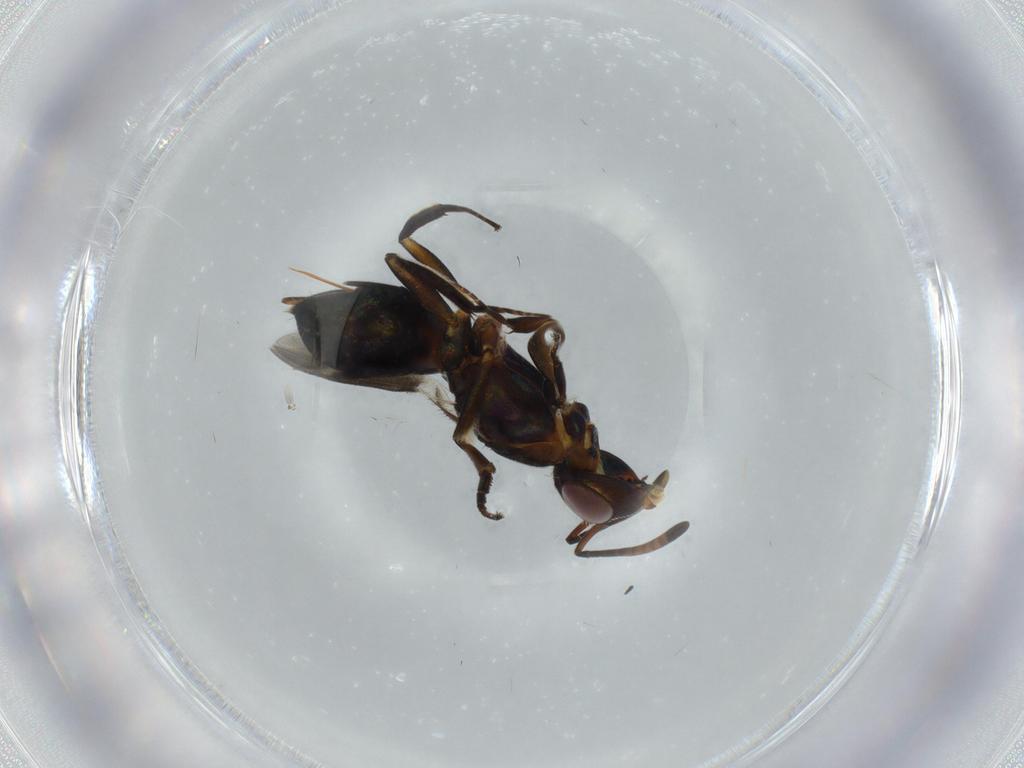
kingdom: Animalia
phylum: Arthropoda
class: Insecta
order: Hymenoptera
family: Eupelmidae
